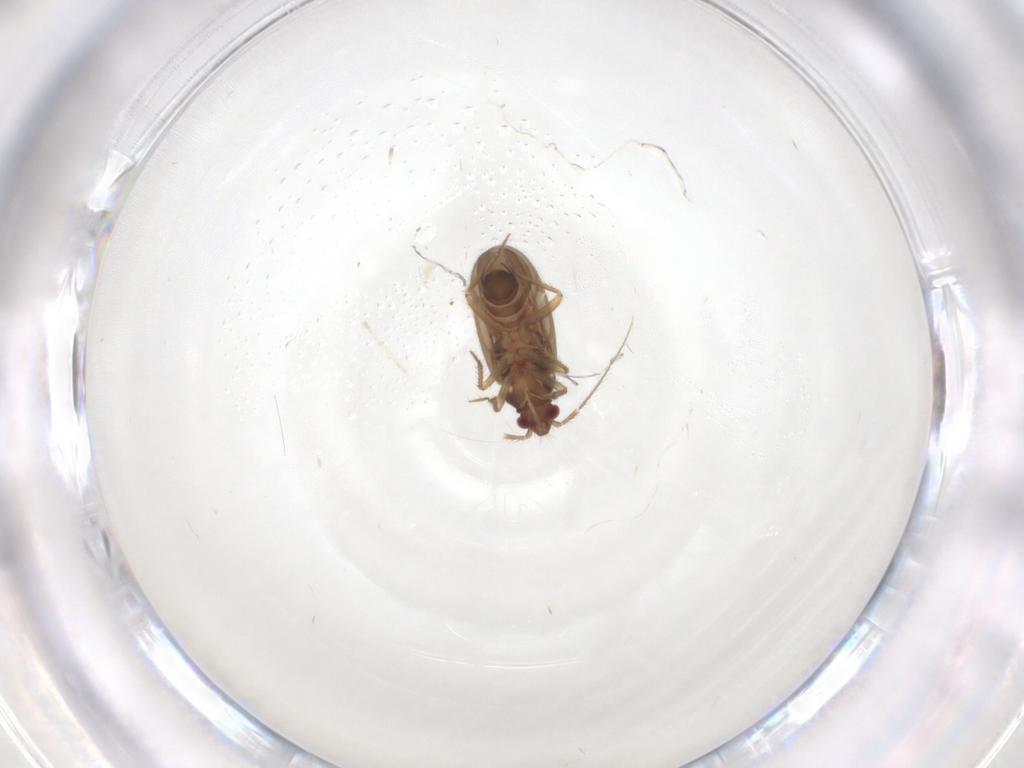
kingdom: Animalia
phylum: Arthropoda
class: Insecta
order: Hemiptera
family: Ceratocombidae
